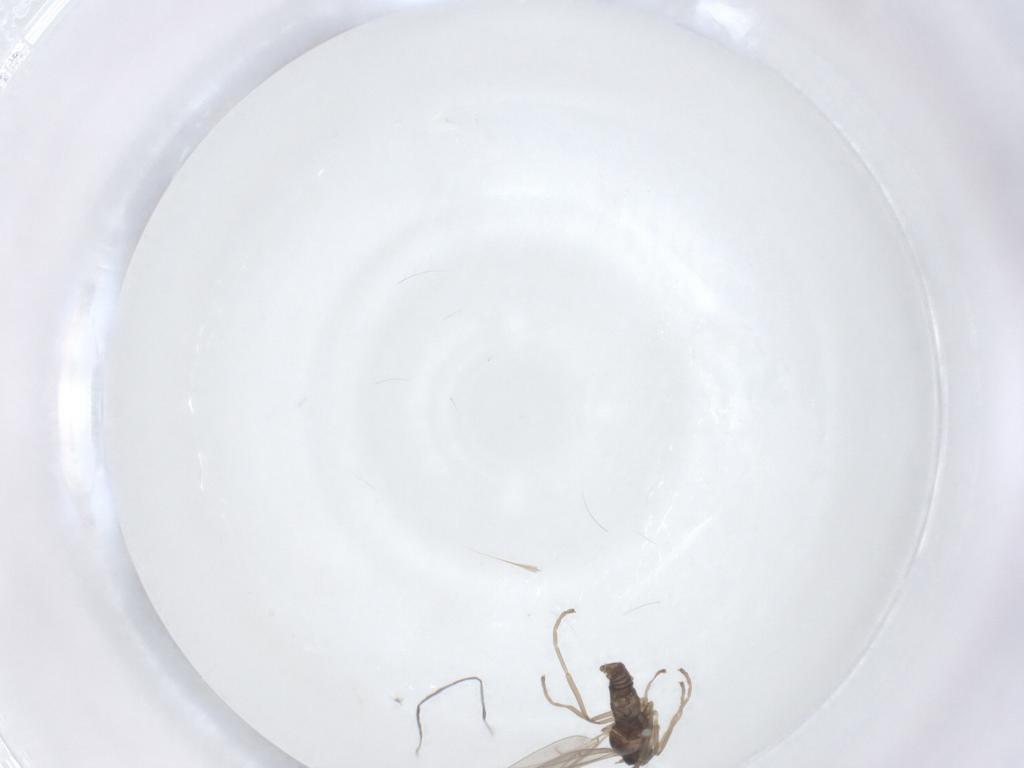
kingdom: Animalia
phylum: Arthropoda
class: Insecta
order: Diptera
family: Cecidomyiidae
